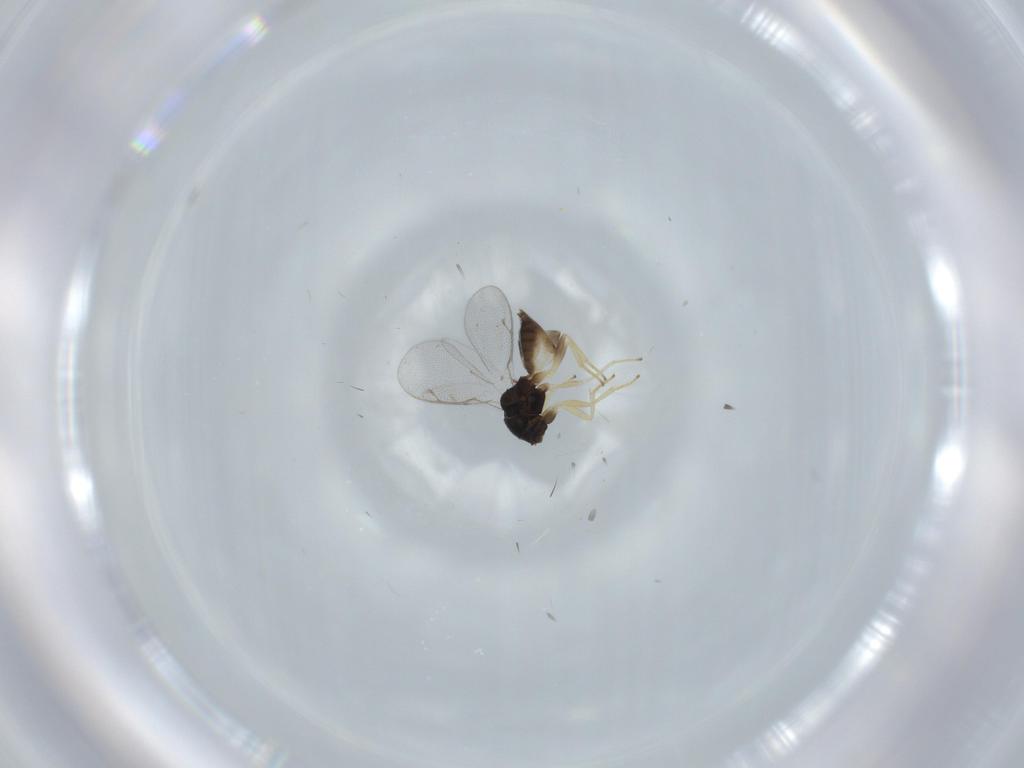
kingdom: Animalia
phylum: Arthropoda
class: Insecta
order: Hymenoptera
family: Pteromalidae
